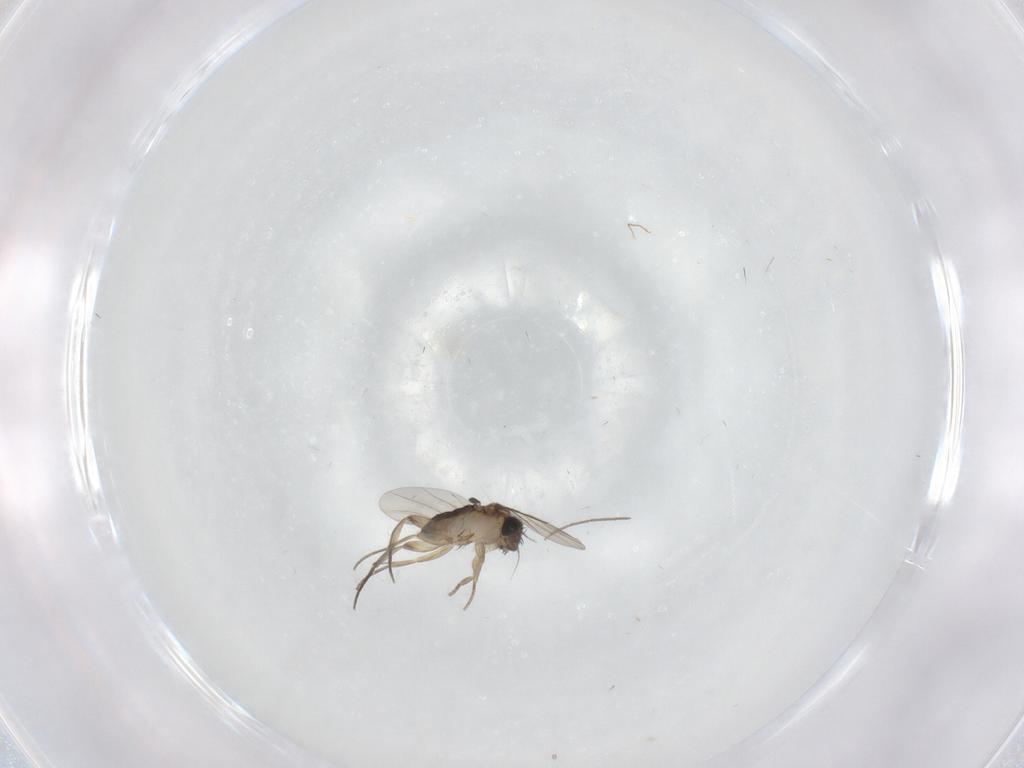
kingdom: Animalia
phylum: Arthropoda
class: Insecta
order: Diptera
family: Phoridae
